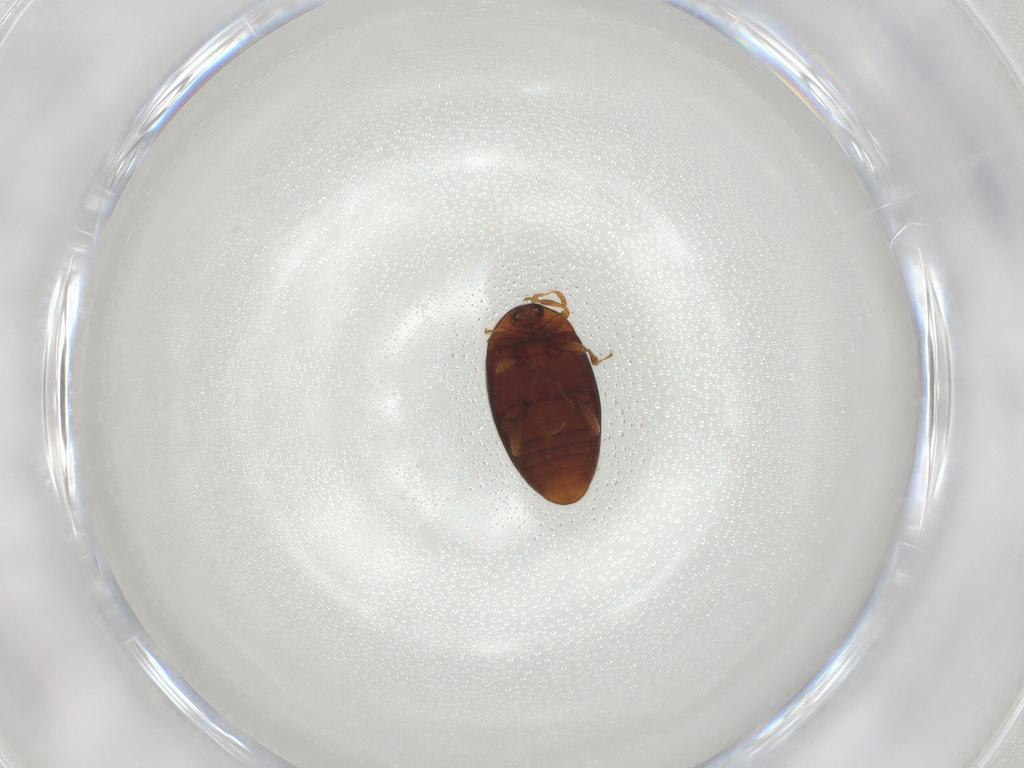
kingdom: Animalia
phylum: Arthropoda
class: Insecta
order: Coleoptera
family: Corylophidae
